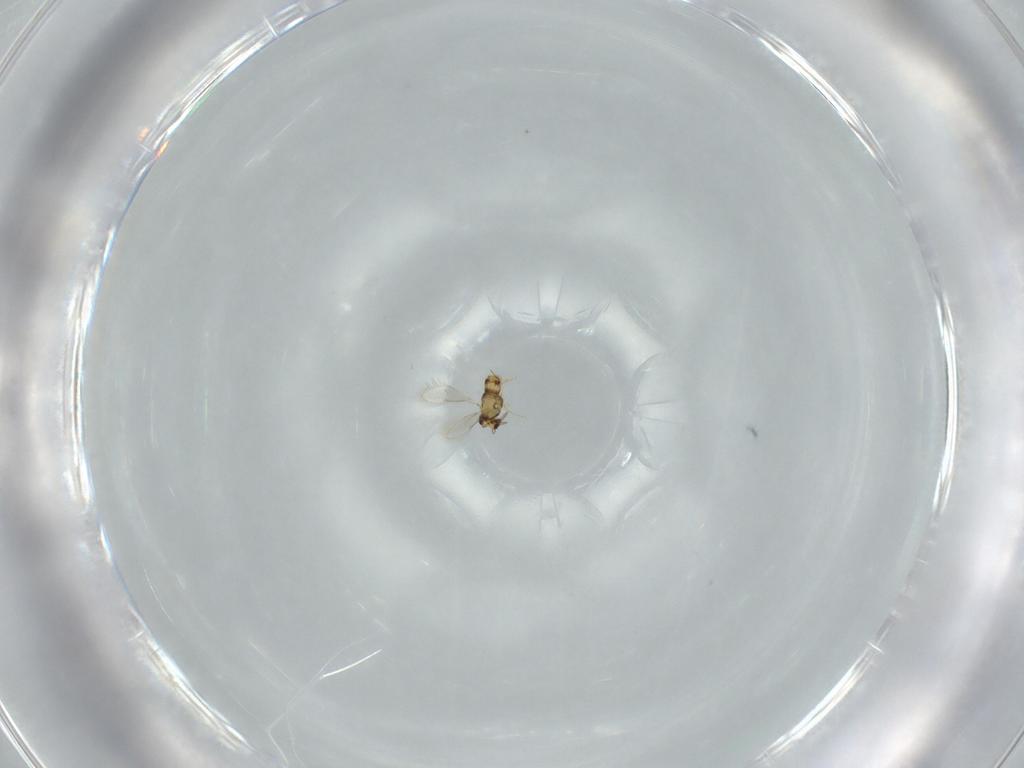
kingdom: Animalia
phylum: Arthropoda
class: Insecta
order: Hymenoptera
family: Aphelinidae
